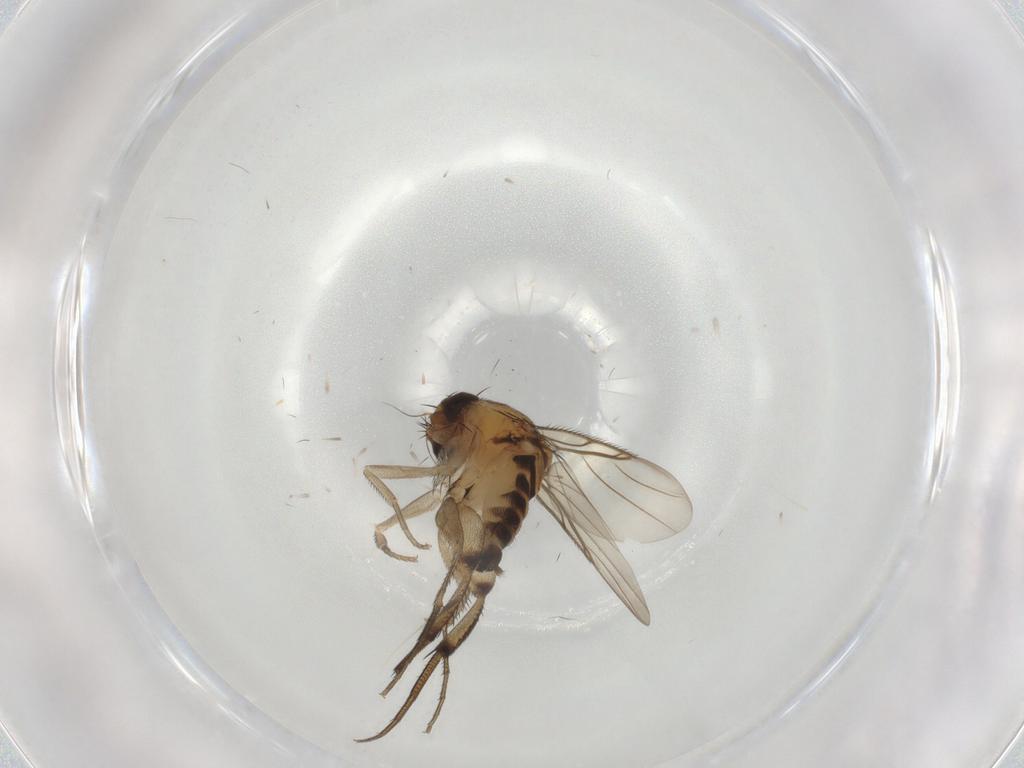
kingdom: Animalia
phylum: Arthropoda
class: Insecta
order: Diptera
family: Phoridae
